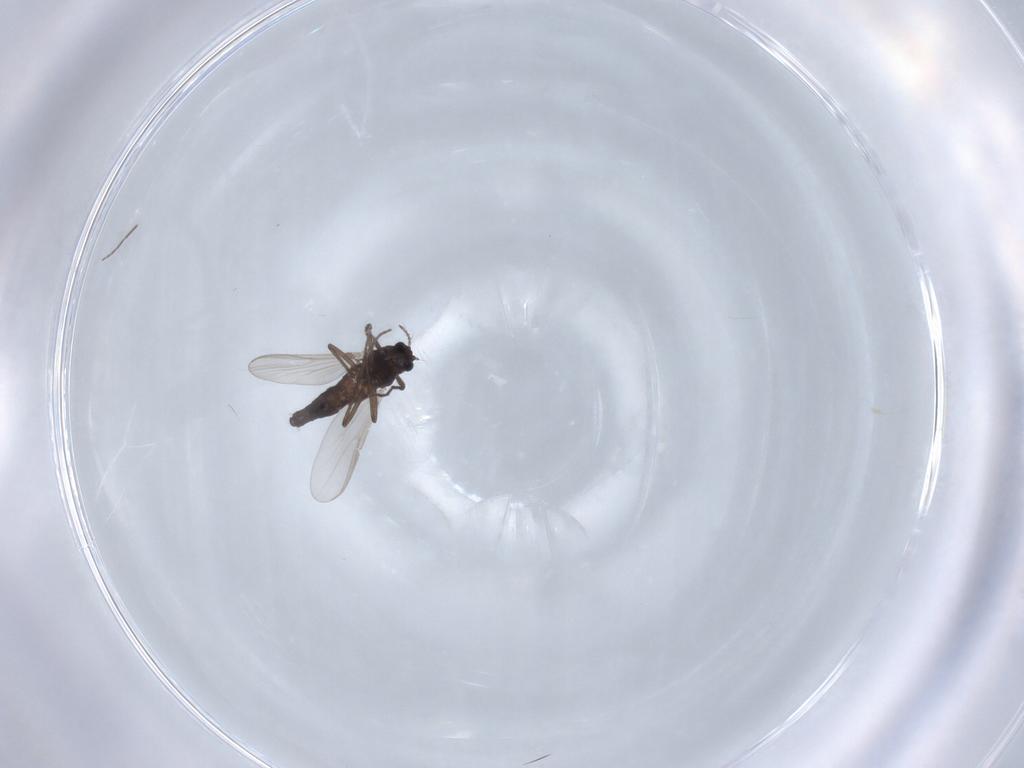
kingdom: Animalia
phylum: Arthropoda
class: Insecta
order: Diptera
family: Chironomidae
